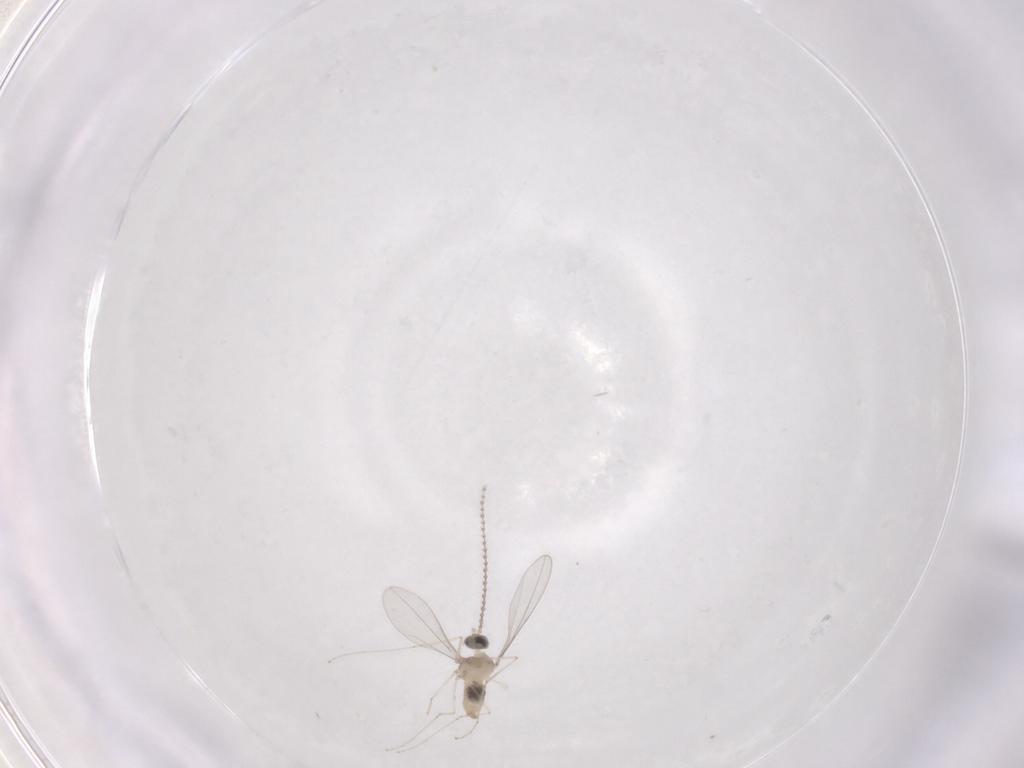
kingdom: Animalia
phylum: Arthropoda
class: Insecta
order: Diptera
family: Cecidomyiidae
